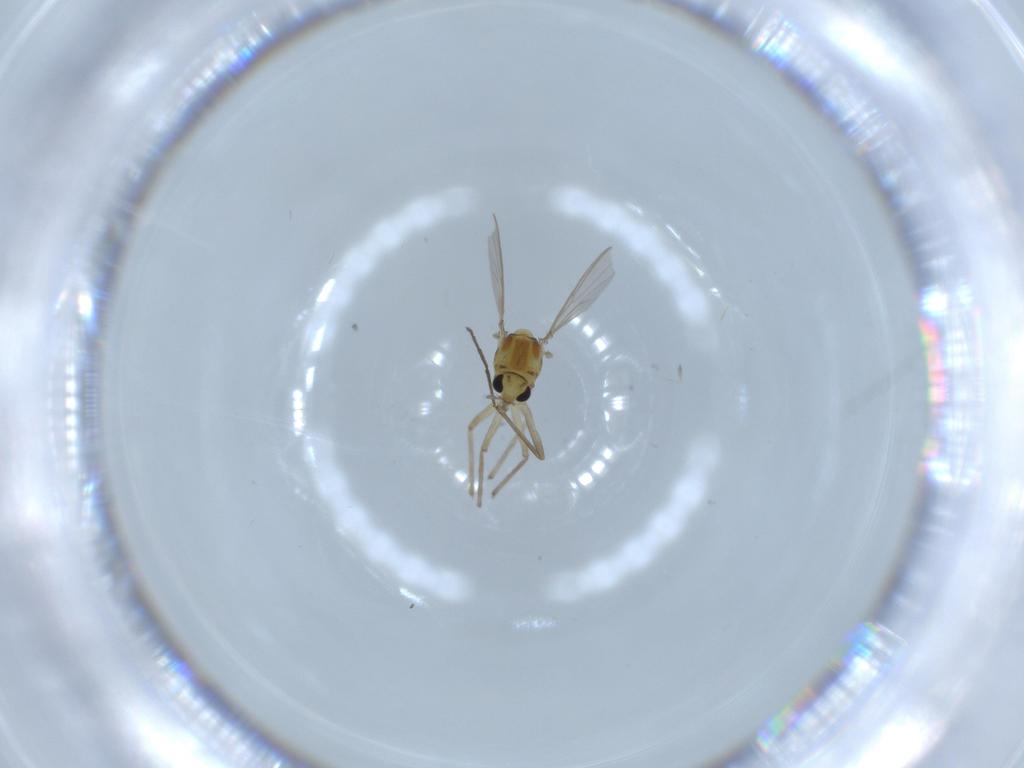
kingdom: Animalia
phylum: Arthropoda
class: Insecta
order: Diptera
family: Chironomidae
